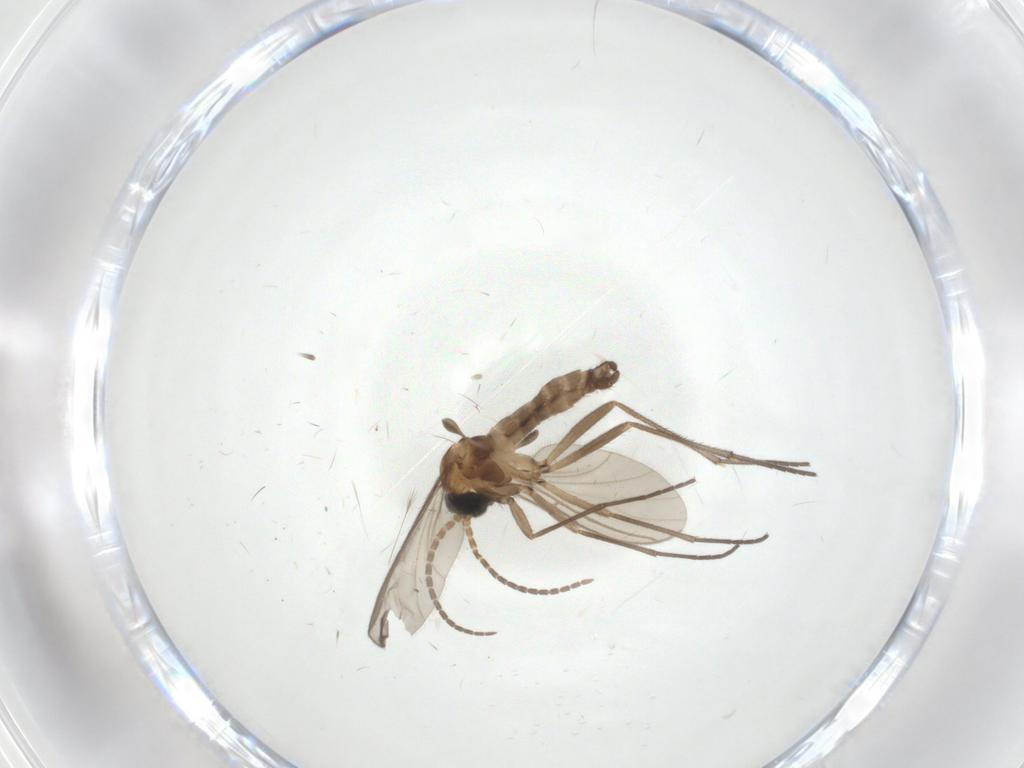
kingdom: Animalia
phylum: Arthropoda
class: Insecta
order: Diptera
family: Sciaridae
